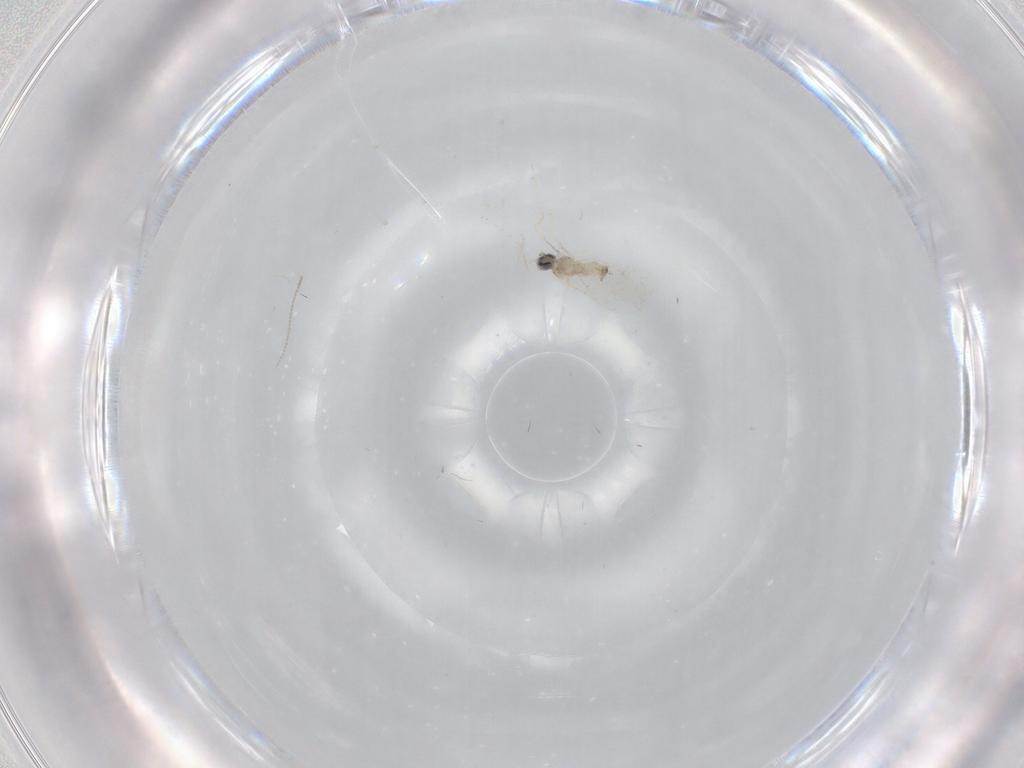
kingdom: Animalia
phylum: Arthropoda
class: Insecta
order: Diptera
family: Cecidomyiidae
